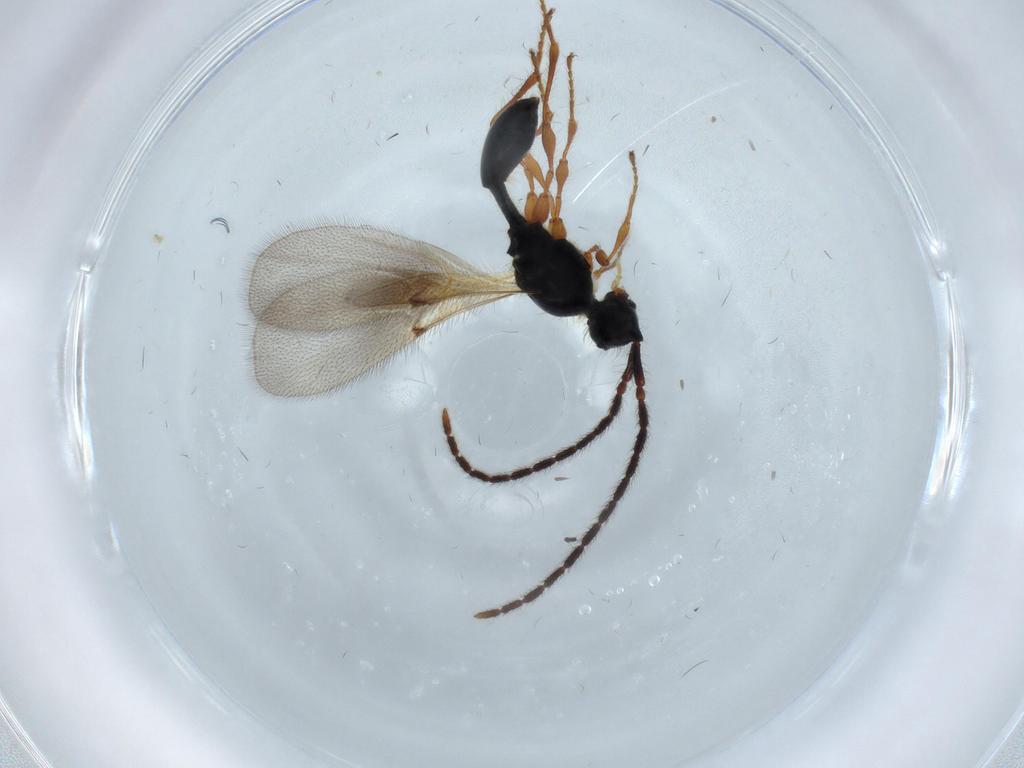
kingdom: Animalia
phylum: Arthropoda
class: Insecta
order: Hymenoptera
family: Diapriidae
